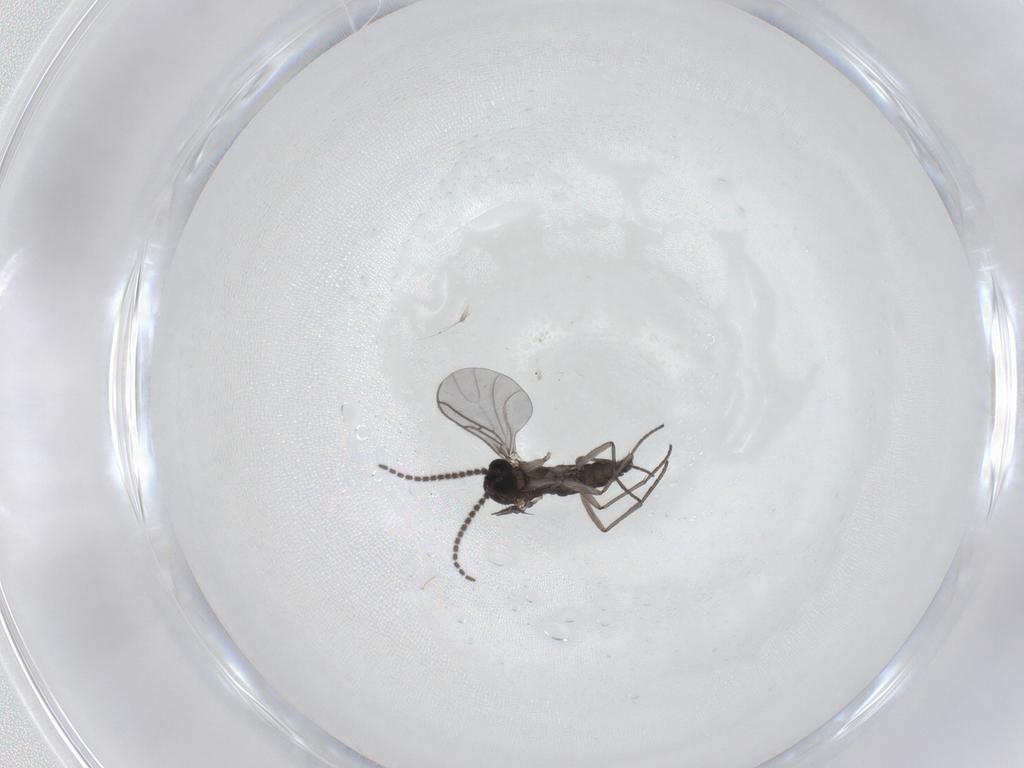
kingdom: Animalia
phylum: Arthropoda
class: Insecta
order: Diptera
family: Sciaridae
